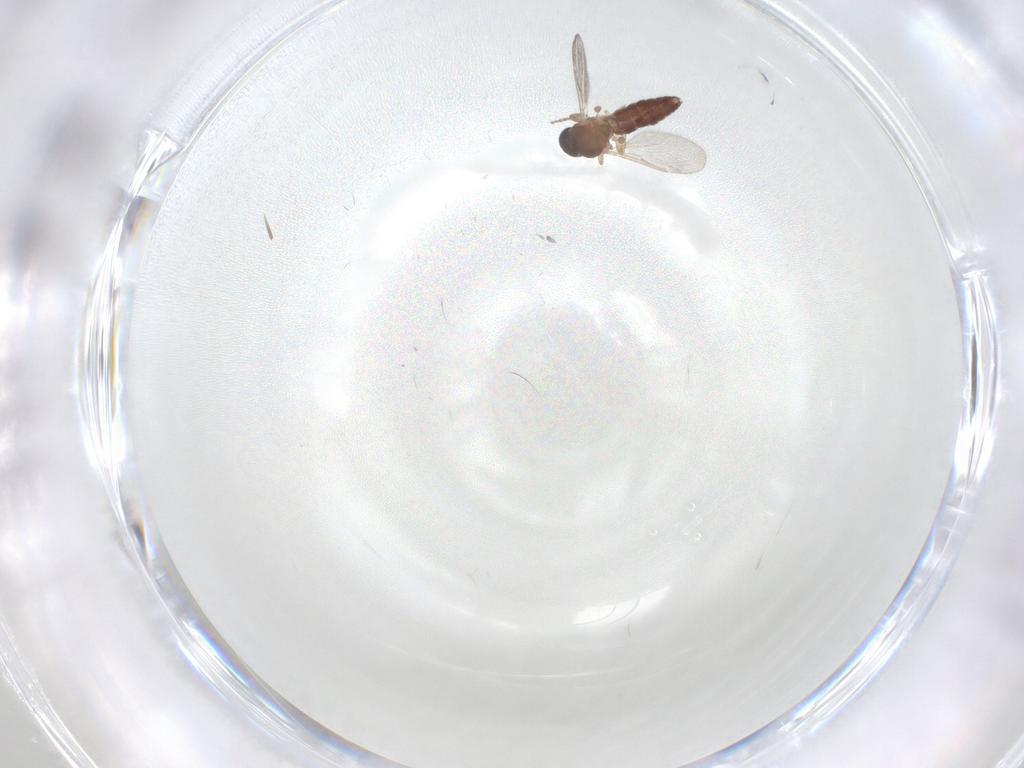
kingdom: Animalia
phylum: Arthropoda
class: Insecta
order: Diptera
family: Ceratopogonidae
